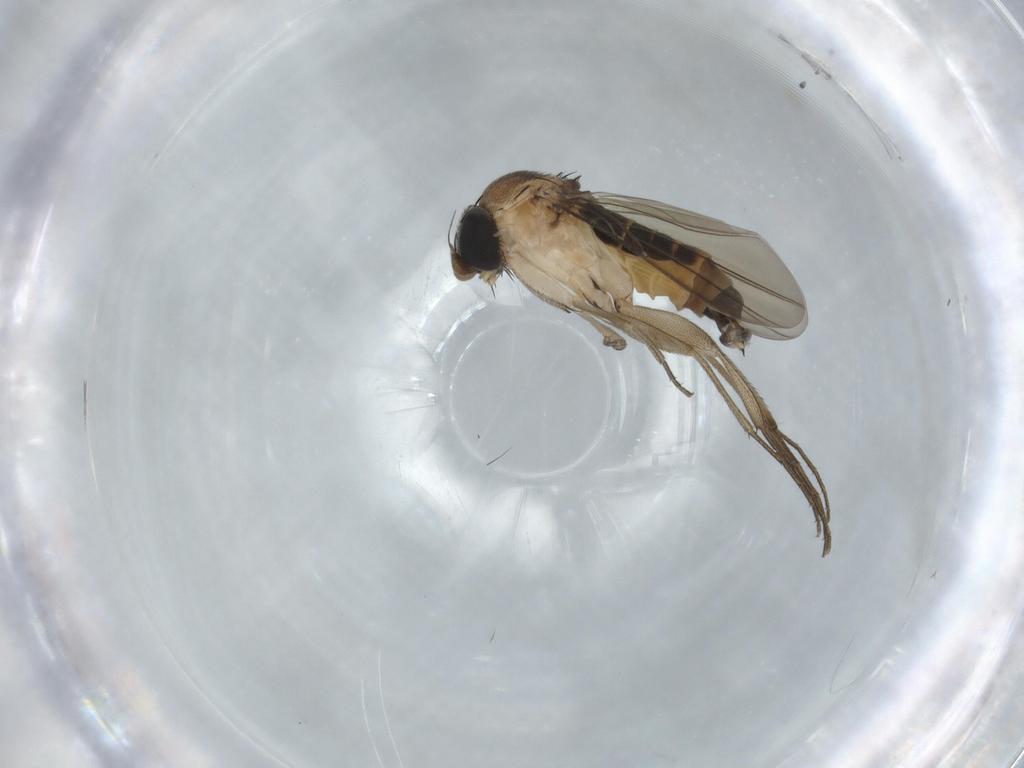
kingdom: Animalia
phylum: Arthropoda
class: Insecta
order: Diptera
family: Phoridae
